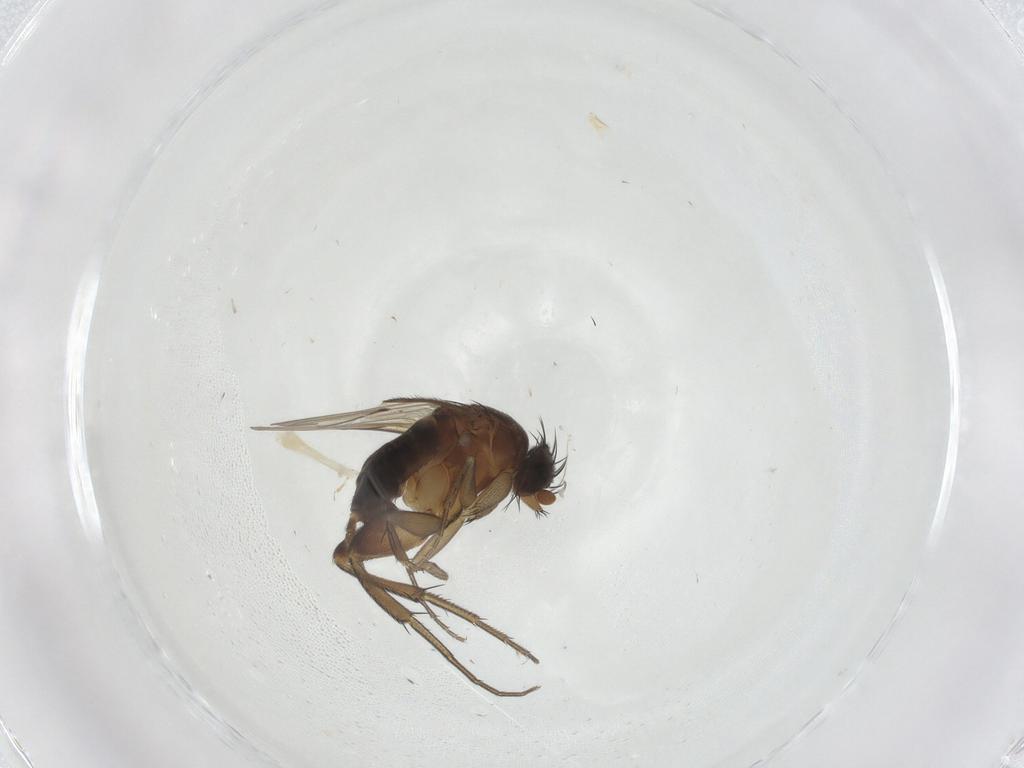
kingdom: Animalia
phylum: Arthropoda
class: Insecta
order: Diptera
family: Phoridae
